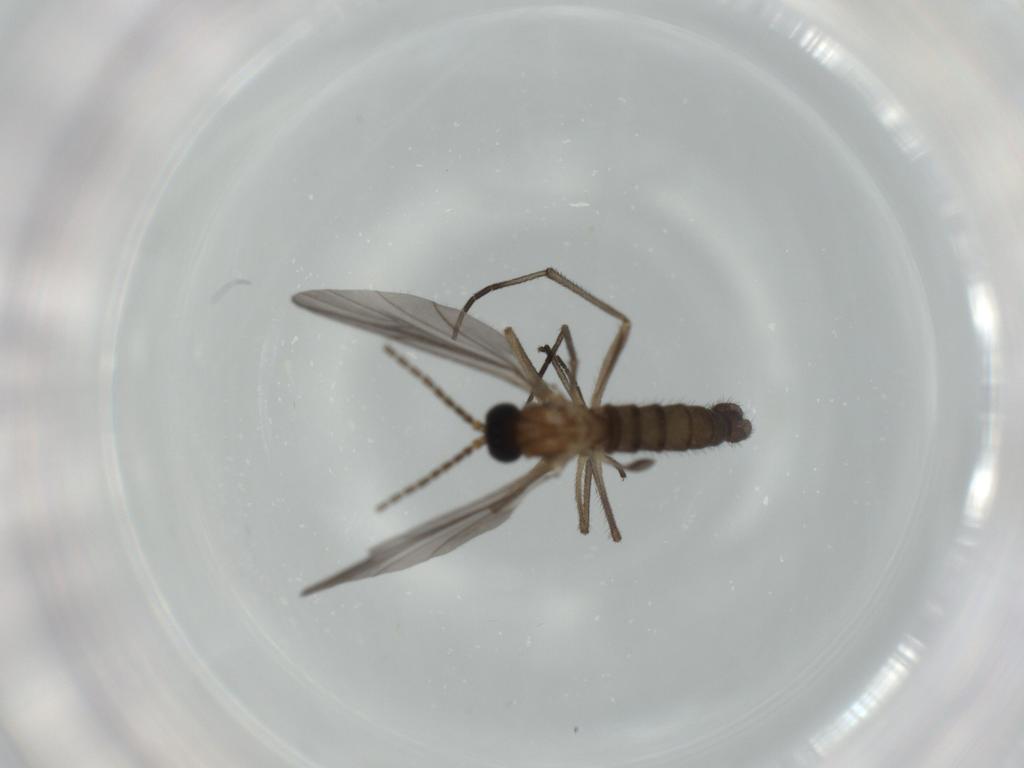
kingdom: Animalia
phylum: Arthropoda
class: Insecta
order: Diptera
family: Sciaridae
